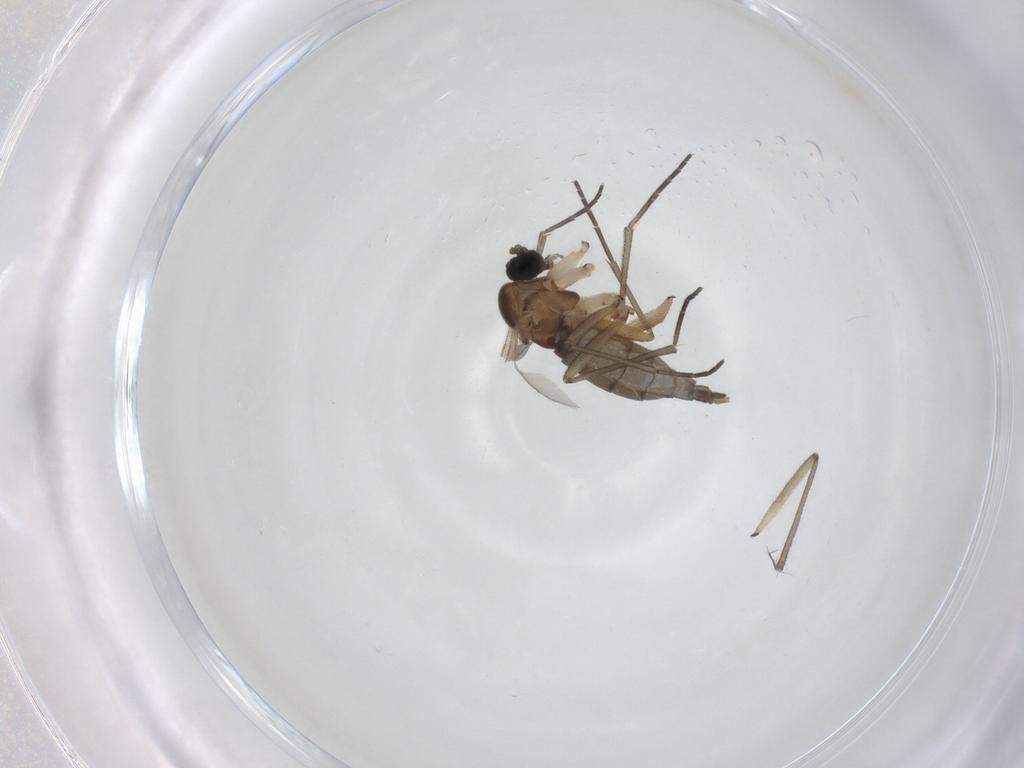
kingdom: Animalia
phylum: Arthropoda
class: Insecta
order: Diptera
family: Sciaridae
